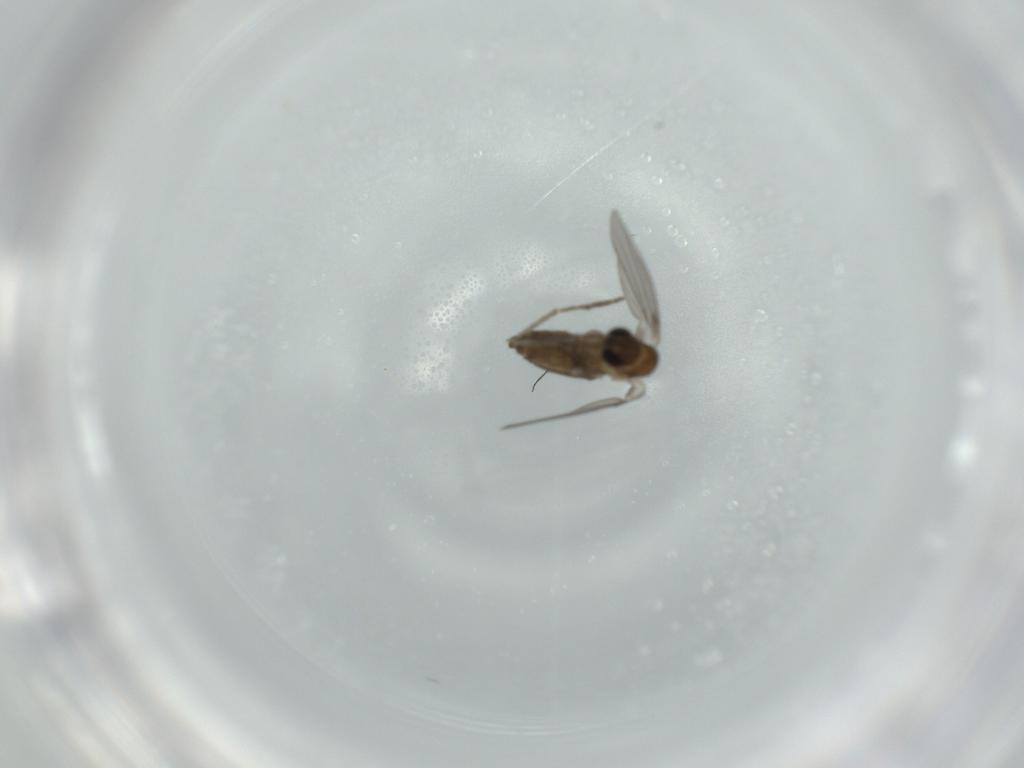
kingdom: Animalia
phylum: Arthropoda
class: Insecta
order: Diptera
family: Psychodidae
